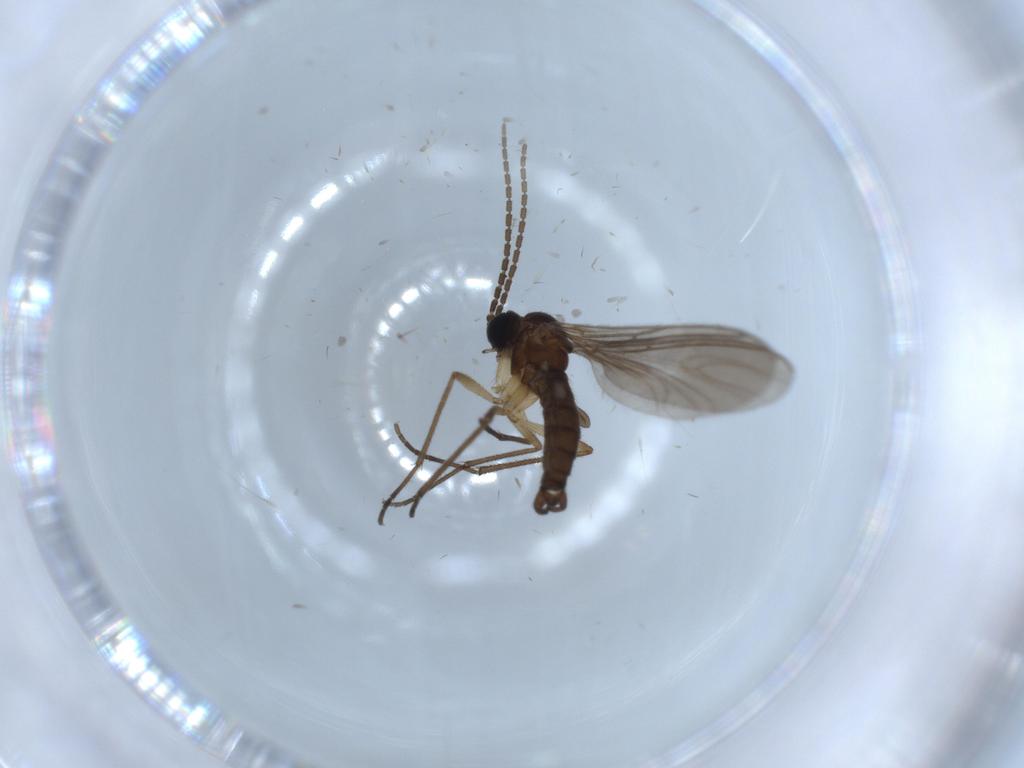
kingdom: Animalia
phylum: Arthropoda
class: Insecta
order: Diptera
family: Sciaridae
